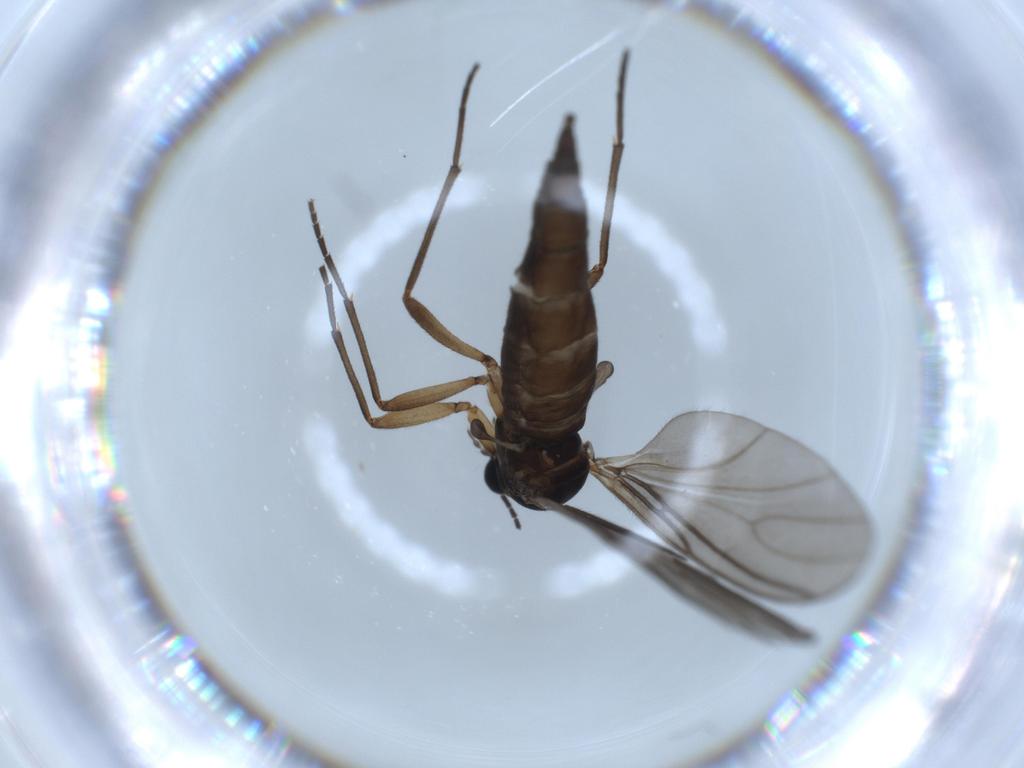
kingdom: Animalia
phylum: Arthropoda
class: Insecta
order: Diptera
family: Sciaridae
